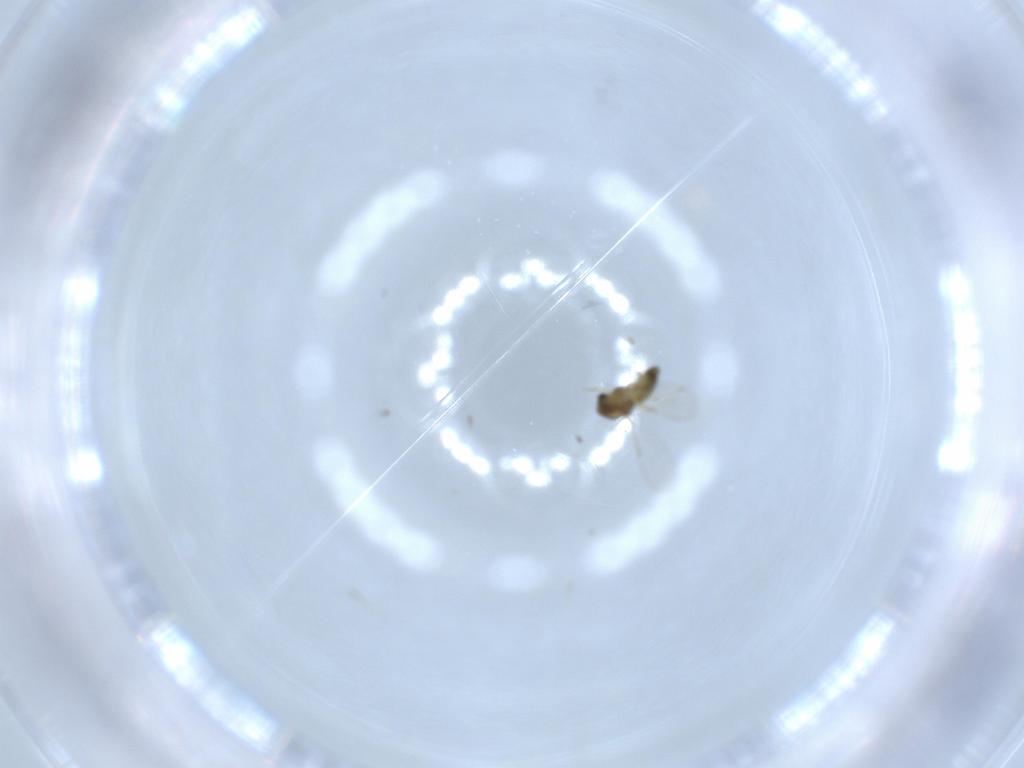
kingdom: Animalia
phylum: Arthropoda
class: Insecta
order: Diptera
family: Chironomidae
